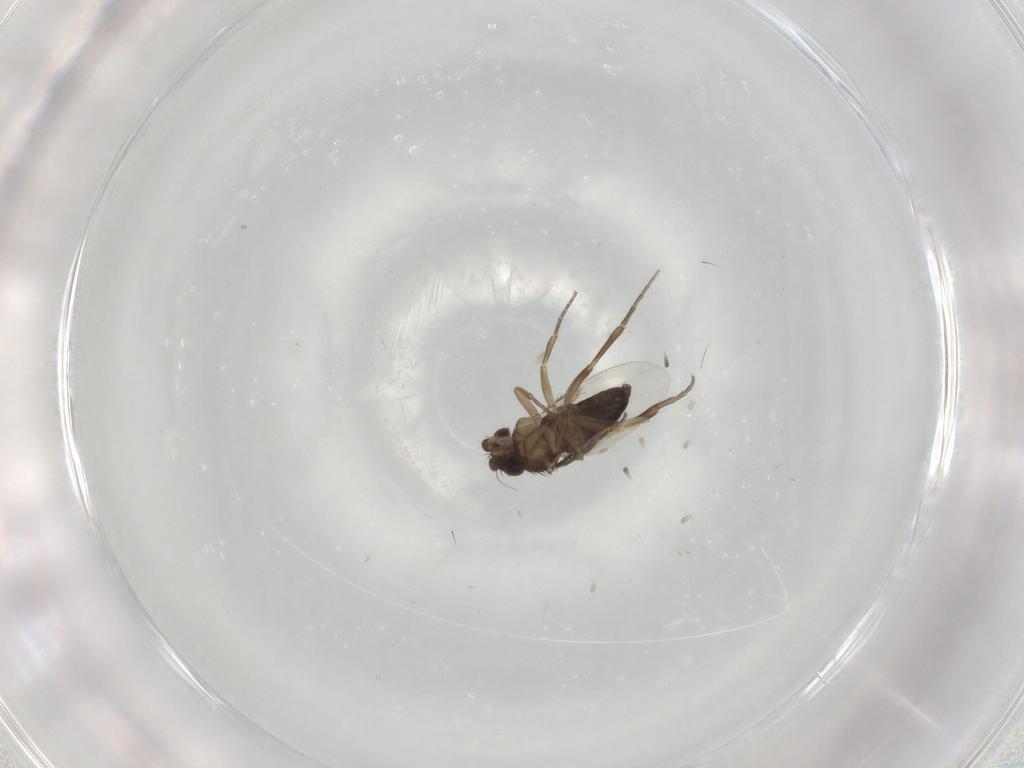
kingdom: Animalia
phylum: Arthropoda
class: Insecta
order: Diptera
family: Phoridae
